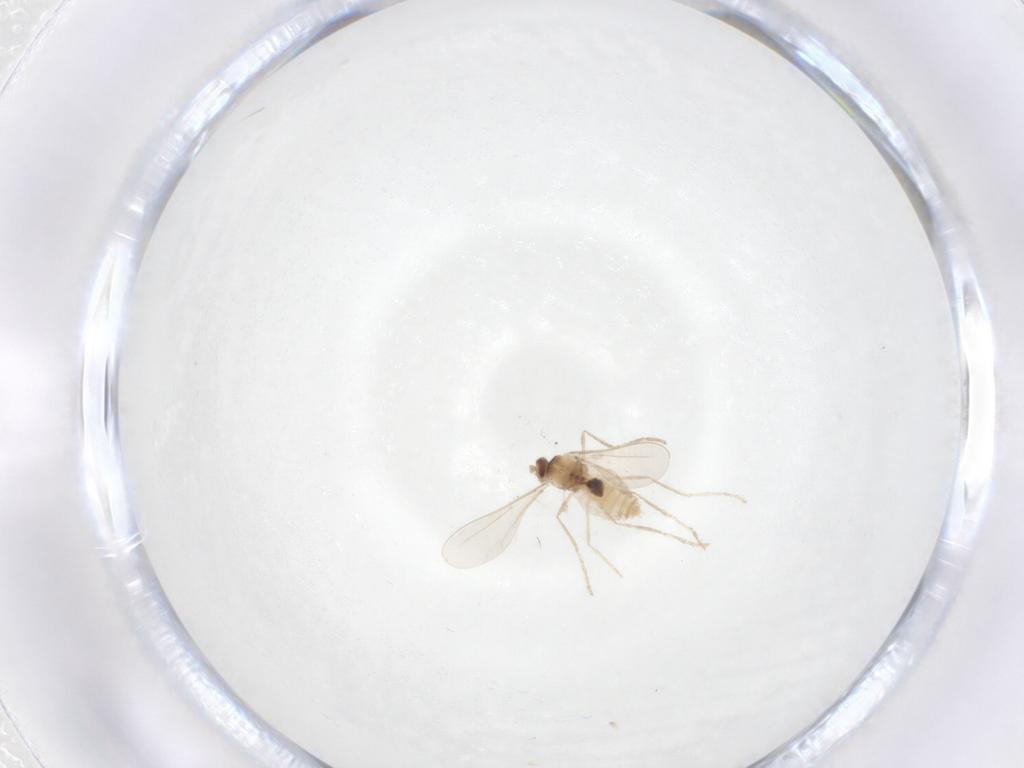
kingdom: Animalia
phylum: Arthropoda
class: Insecta
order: Diptera
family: Cecidomyiidae
